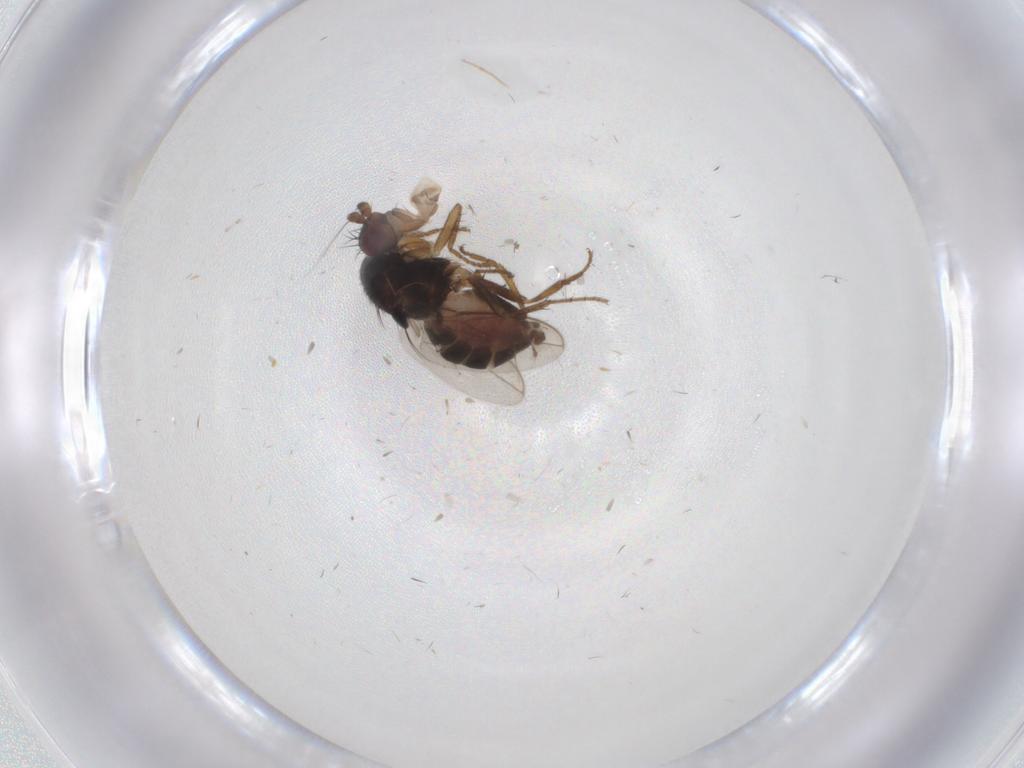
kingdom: Animalia
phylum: Arthropoda
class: Insecta
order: Diptera
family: Sphaeroceridae
